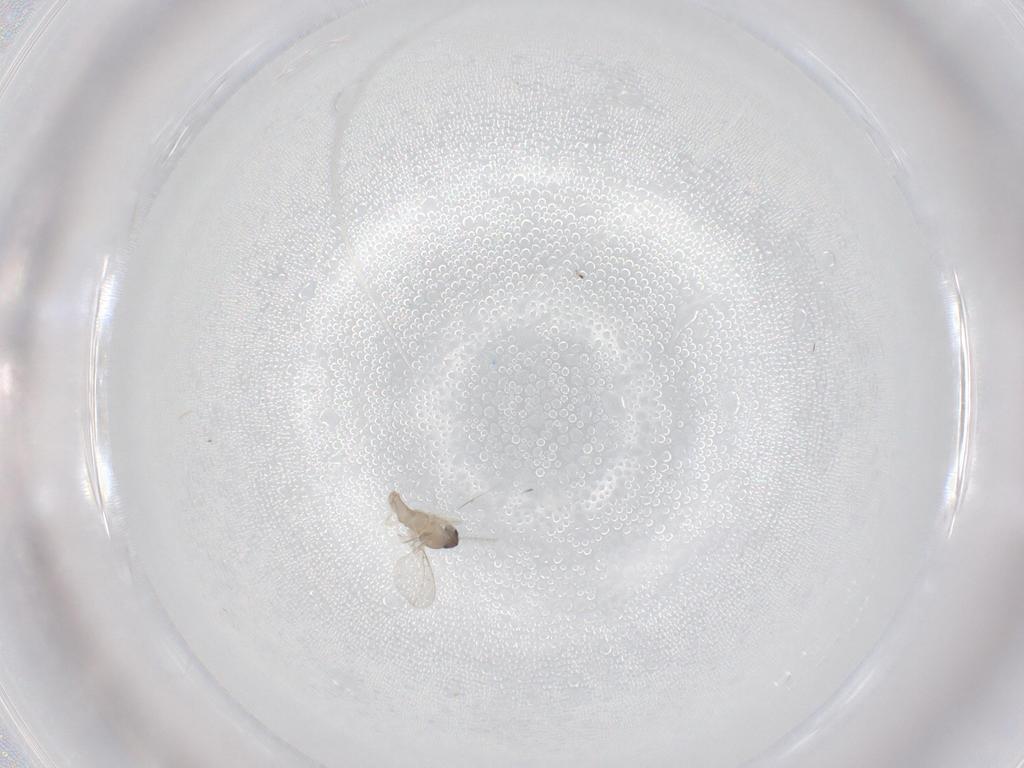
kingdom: Animalia
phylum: Arthropoda
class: Insecta
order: Diptera
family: Cecidomyiidae
